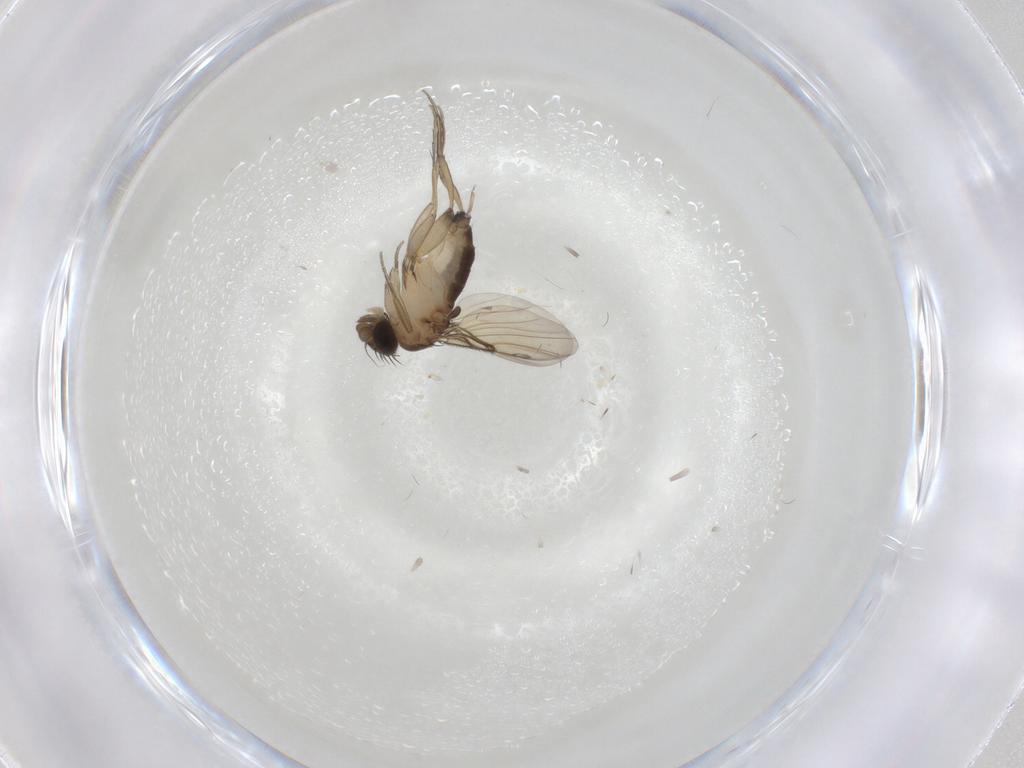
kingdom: Animalia
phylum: Arthropoda
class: Insecta
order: Diptera
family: Phoridae
